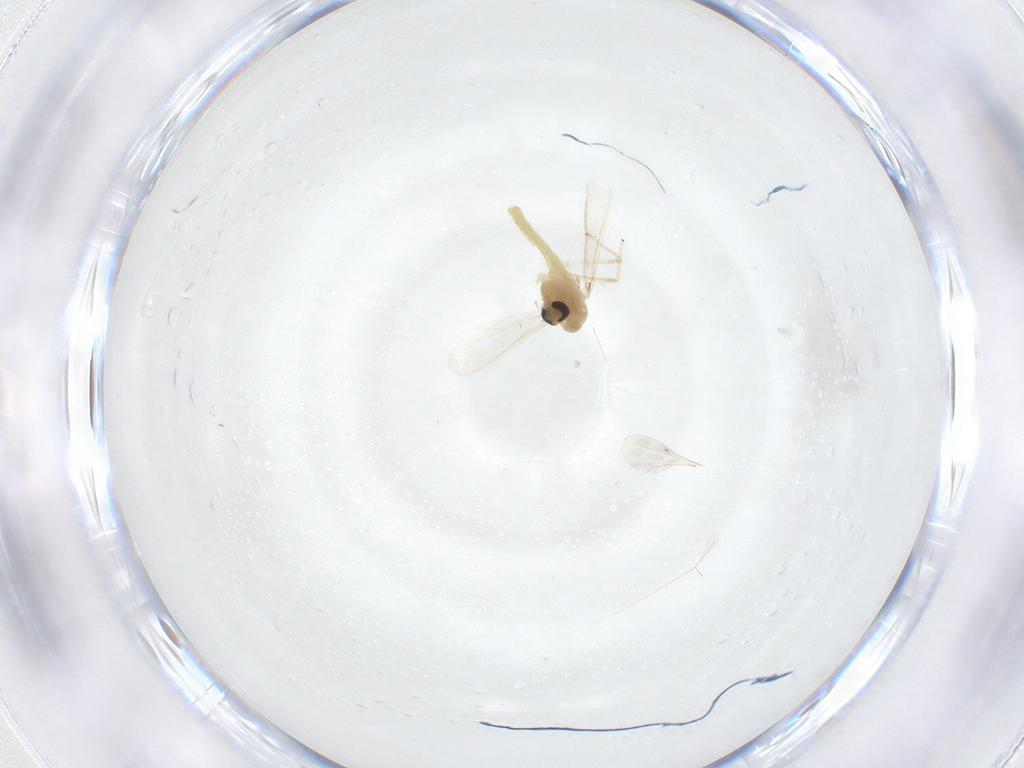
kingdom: Animalia
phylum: Arthropoda
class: Insecta
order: Diptera
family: Chironomidae
